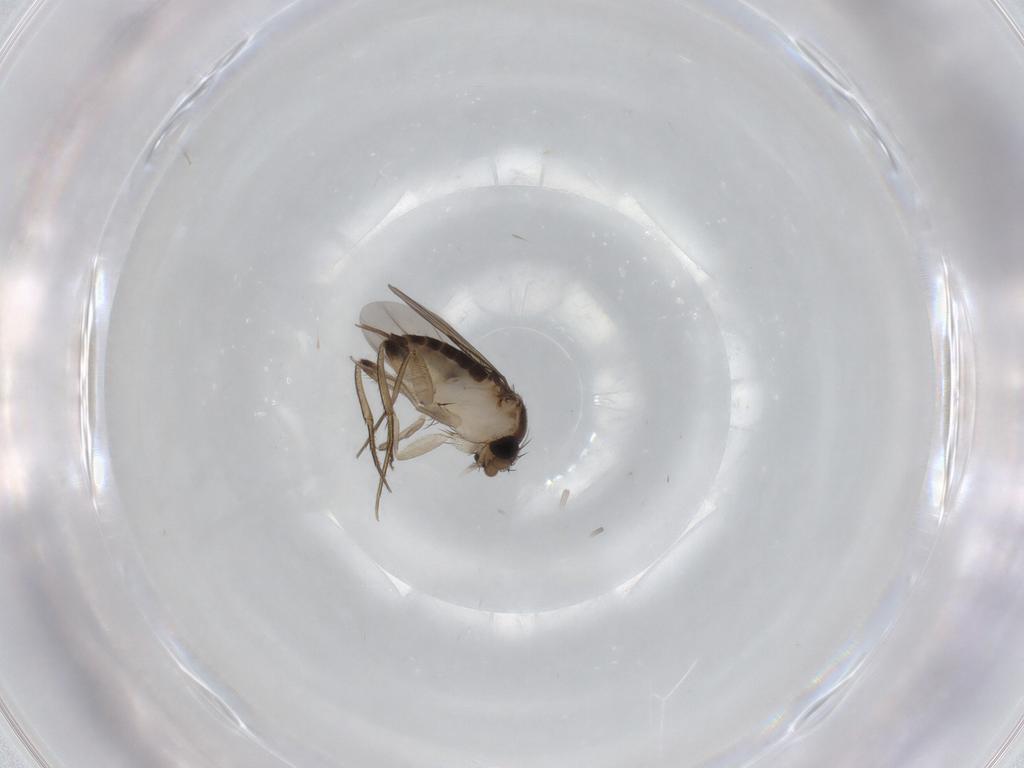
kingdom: Animalia
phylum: Arthropoda
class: Insecta
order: Diptera
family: Phoridae
